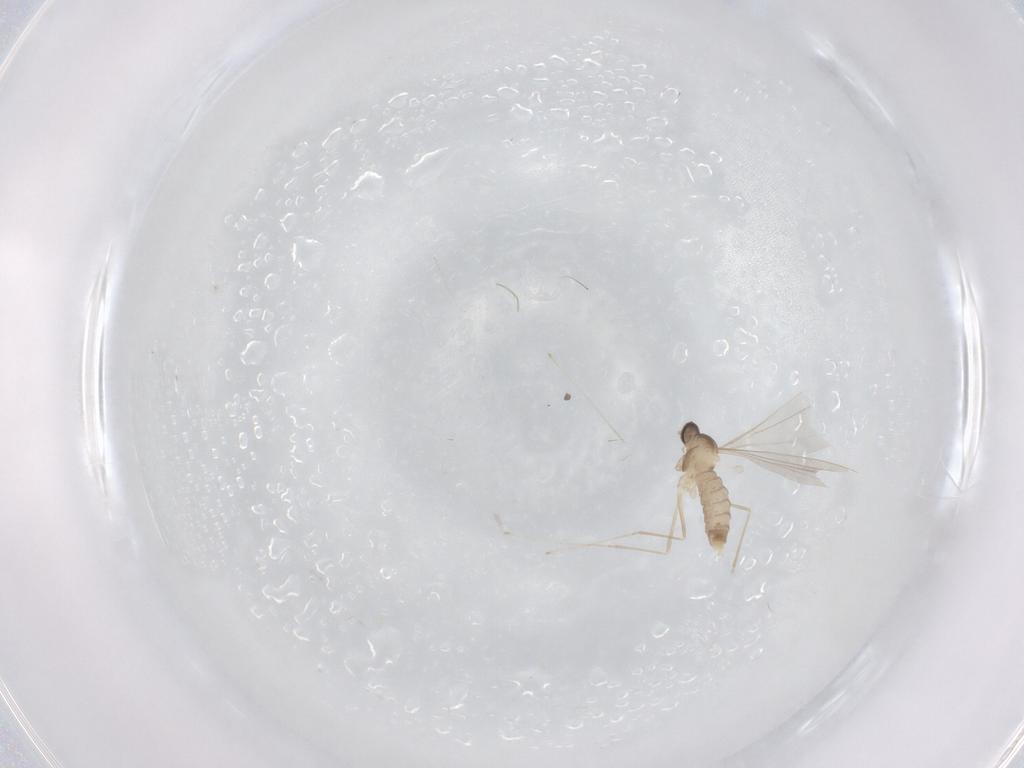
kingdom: Animalia
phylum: Arthropoda
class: Insecta
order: Diptera
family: Cecidomyiidae
